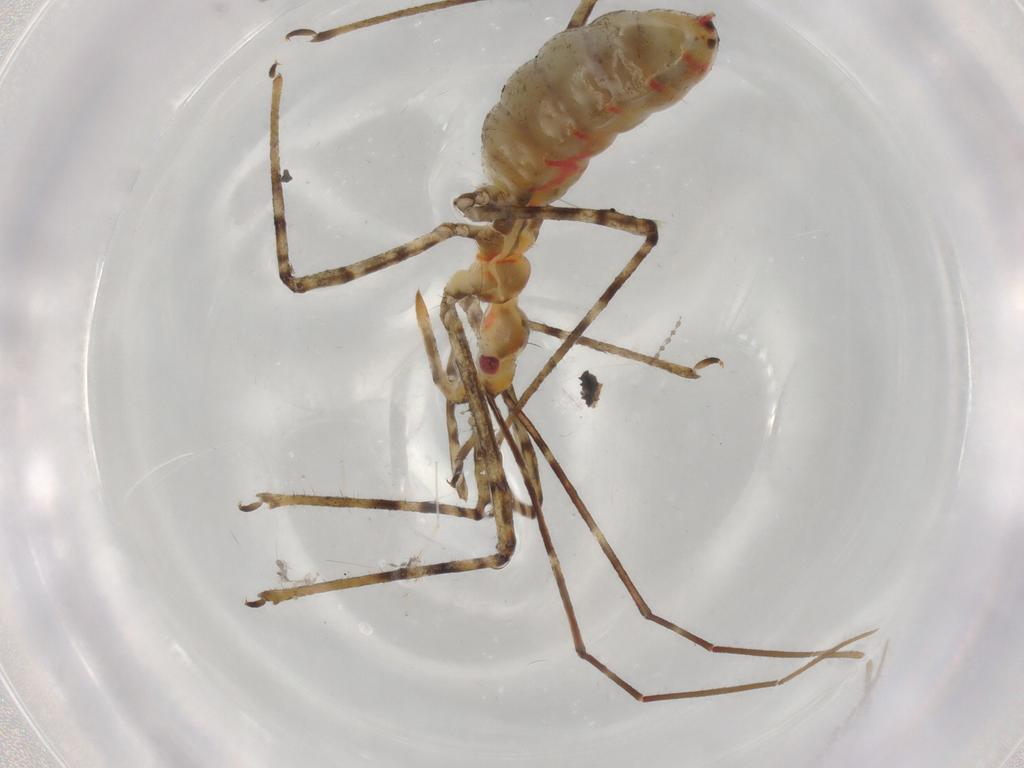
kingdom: Animalia
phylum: Arthropoda
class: Insecta
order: Hemiptera
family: Reduviidae
